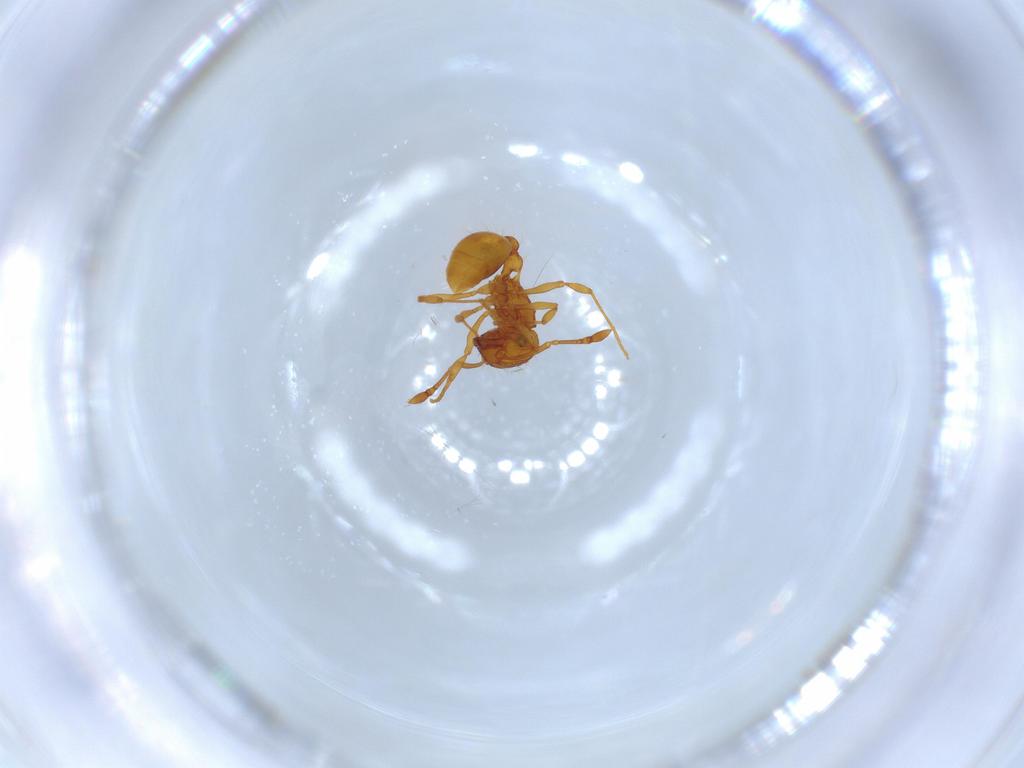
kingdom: Animalia
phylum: Arthropoda
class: Insecta
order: Hymenoptera
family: Formicidae
